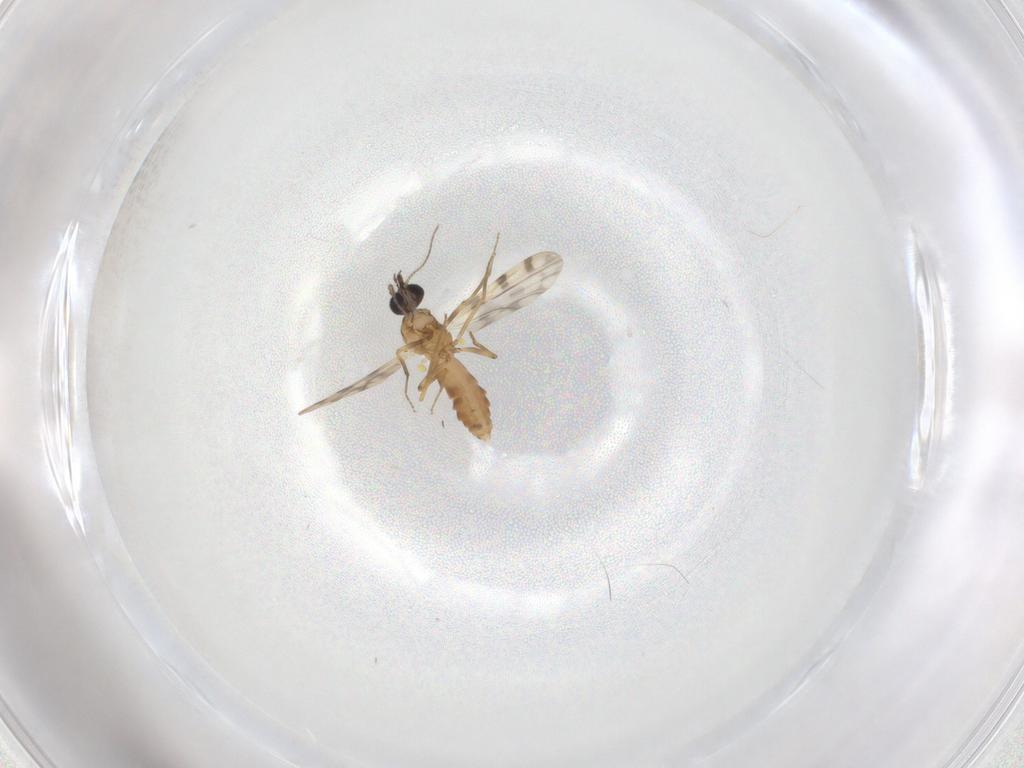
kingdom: Animalia
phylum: Arthropoda
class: Insecta
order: Diptera
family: Ceratopogonidae
